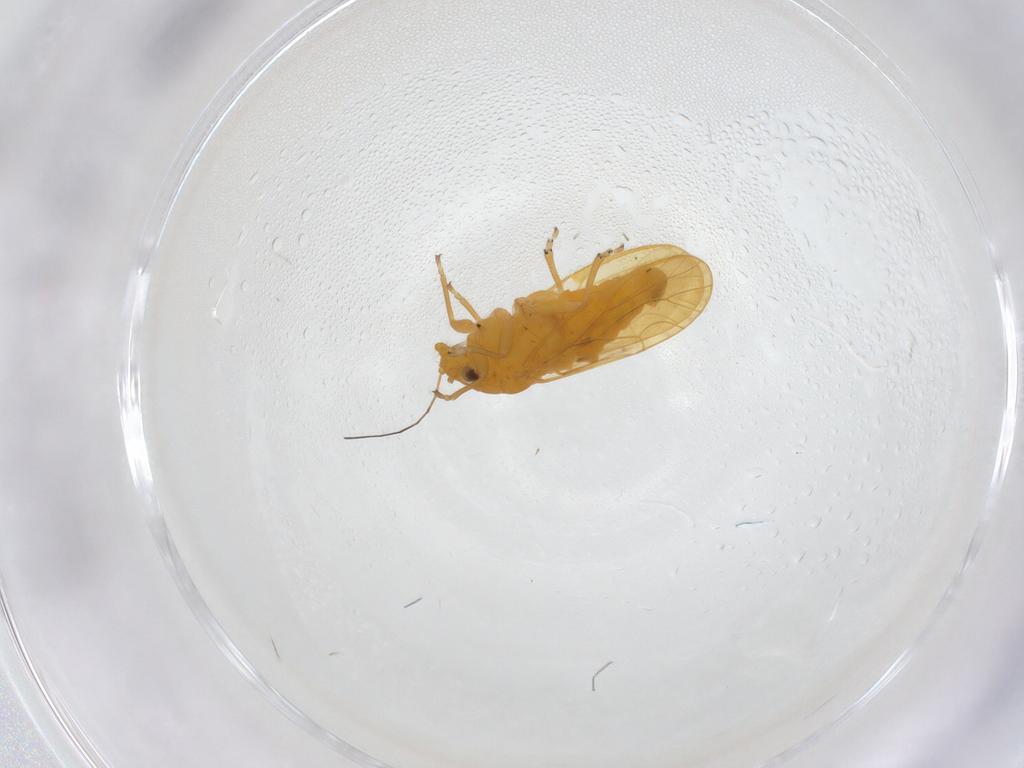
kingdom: Animalia
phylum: Arthropoda
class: Insecta
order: Hemiptera
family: Psyllidae
